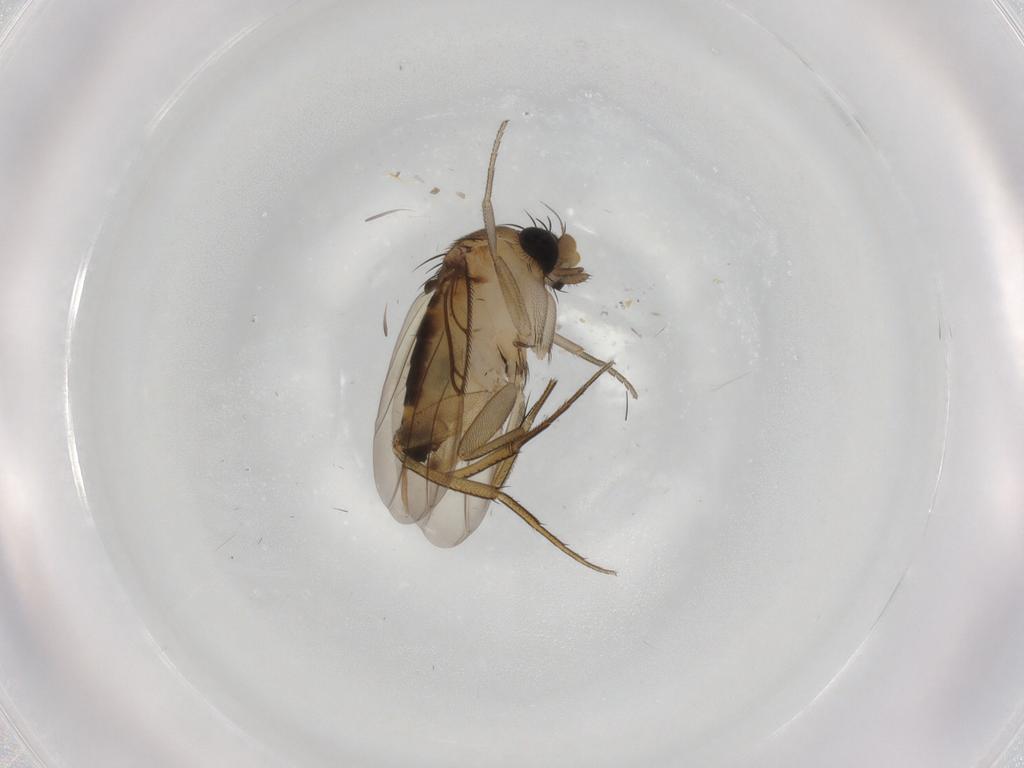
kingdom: Animalia
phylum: Arthropoda
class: Insecta
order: Diptera
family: Phoridae
